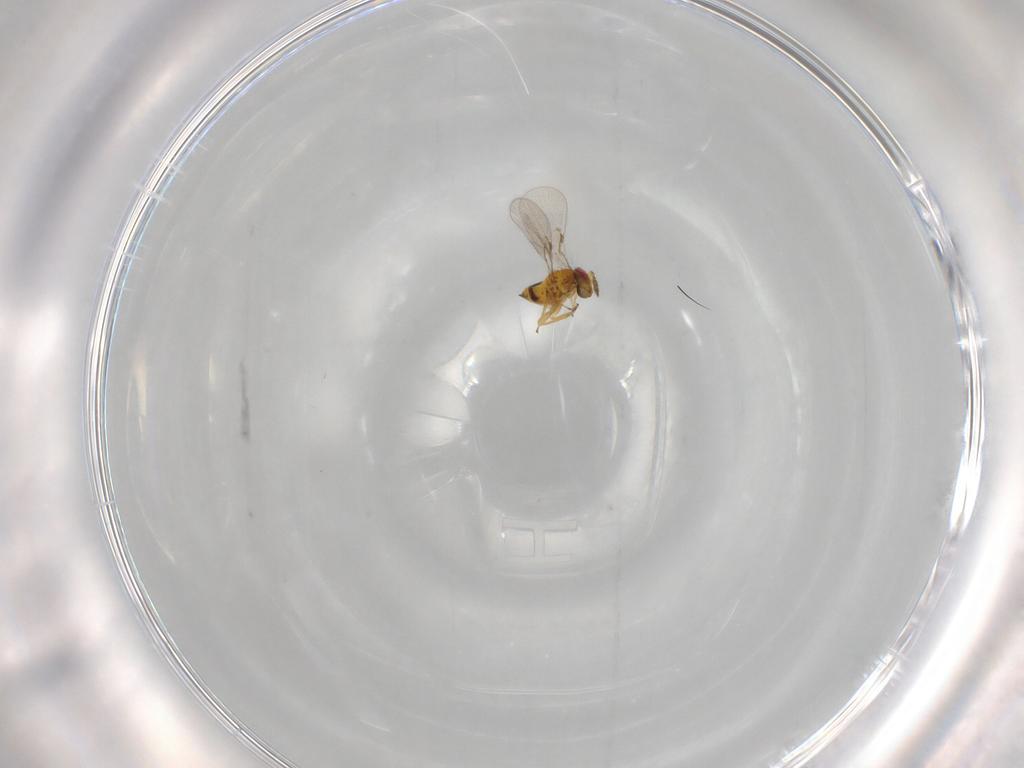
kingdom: Animalia
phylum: Arthropoda
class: Insecta
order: Hymenoptera
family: Trichogrammatidae
